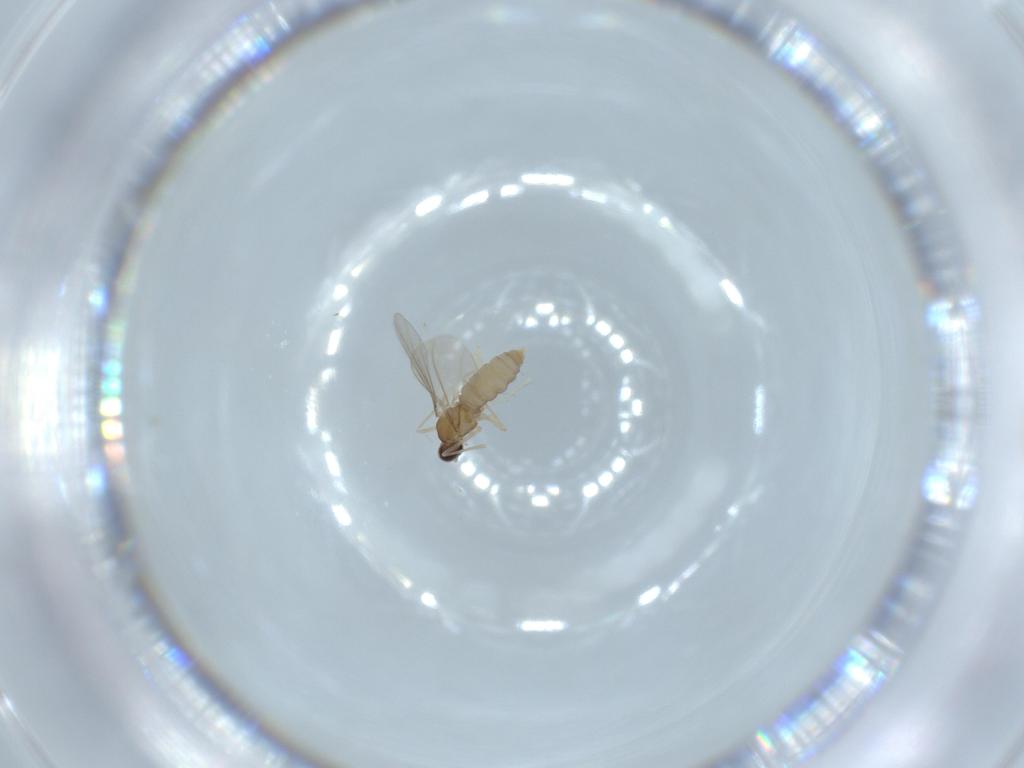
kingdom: Animalia
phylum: Arthropoda
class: Insecta
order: Diptera
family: Cecidomyiidae
